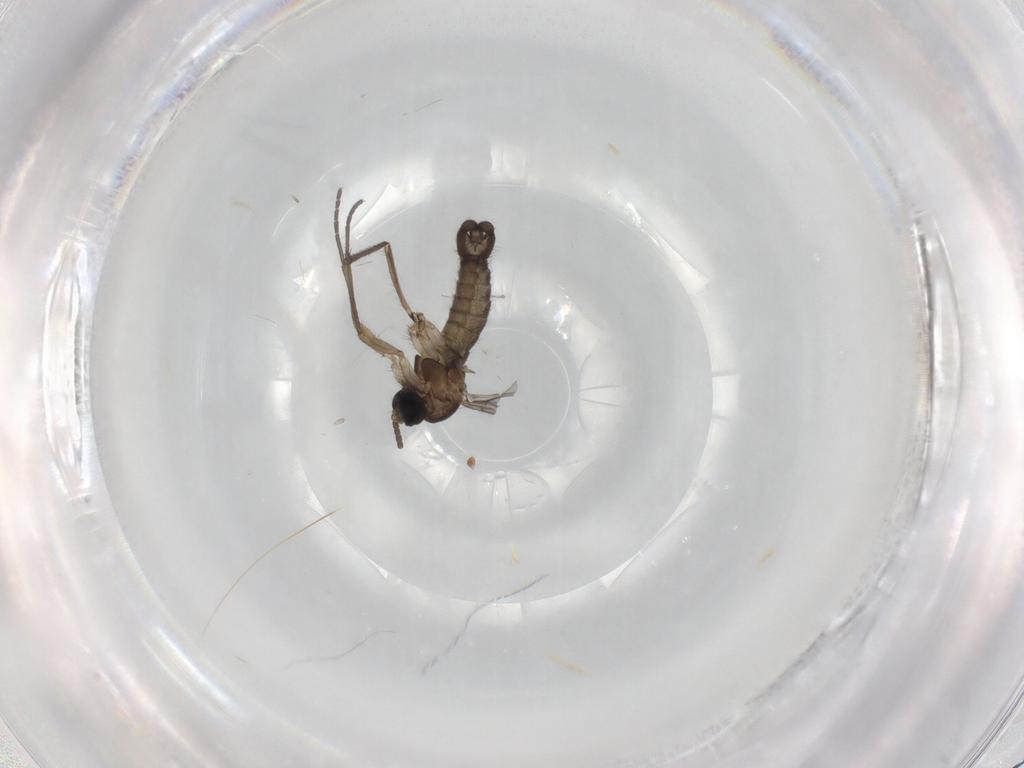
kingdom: Animalia
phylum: Arthropoda
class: Insecta
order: Diptera
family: Sciaridae
